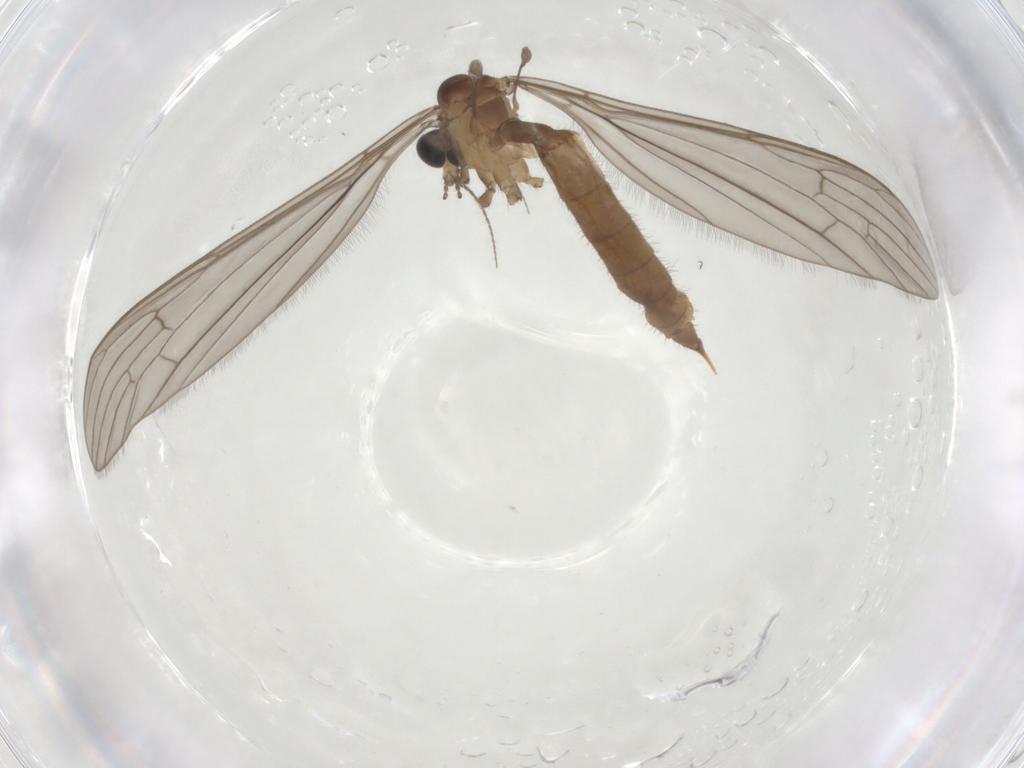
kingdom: Animalia
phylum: Arthropoda
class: Insecta
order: Diptera
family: Limoniidae
